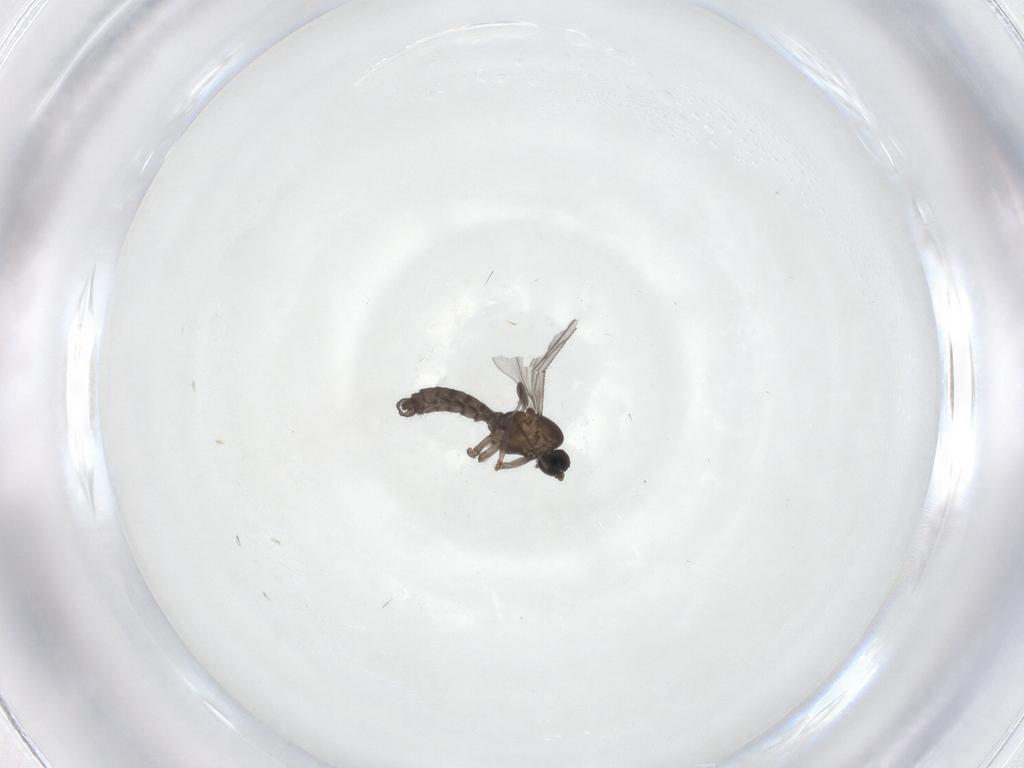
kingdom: Animalia
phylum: Arthropoda
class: Insecta
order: Diptera
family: Sciaridae
